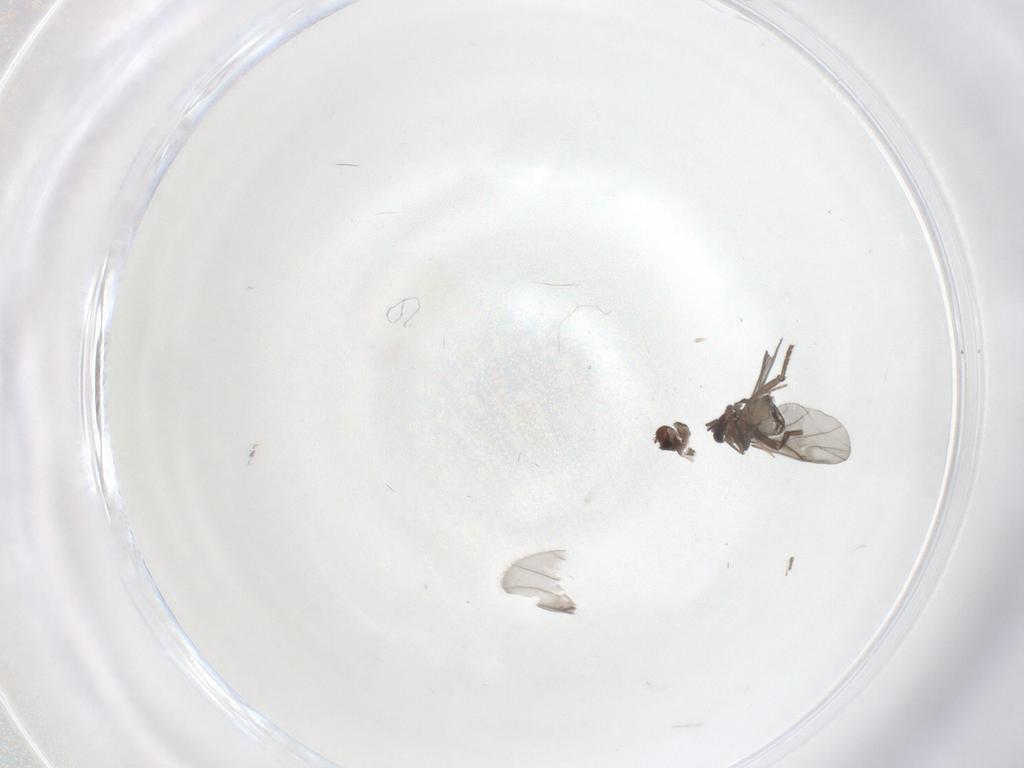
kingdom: Animalia
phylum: Arthropoda
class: Insecta
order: Diptera
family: Chironomidae
